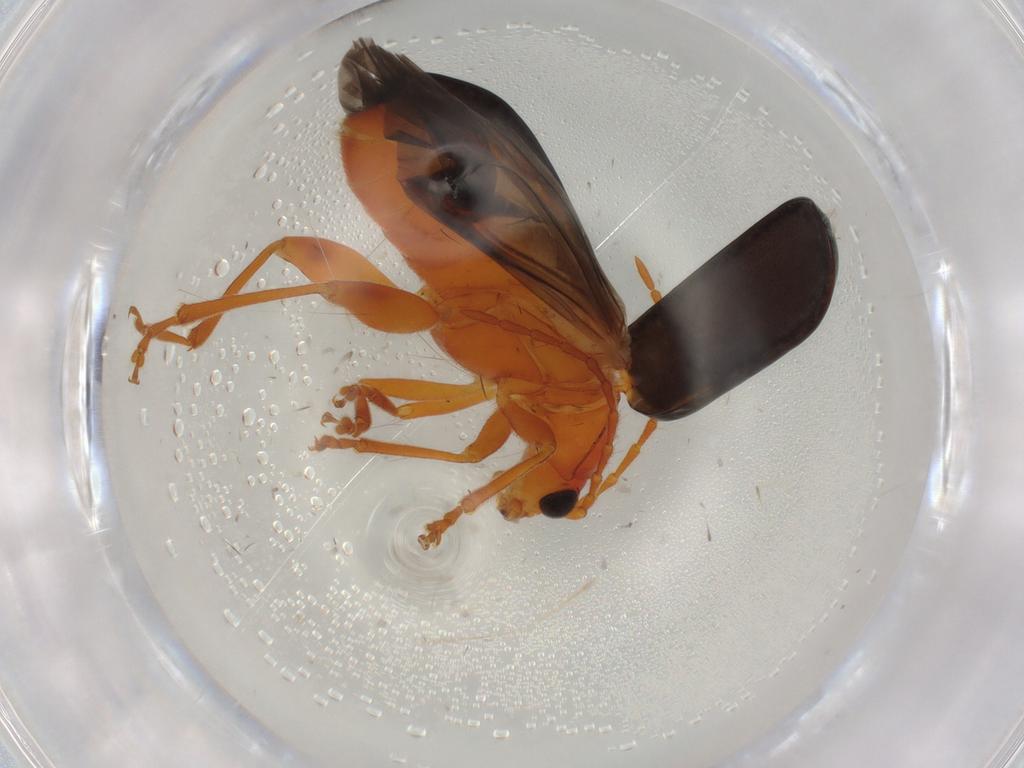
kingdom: Animalia
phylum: Arthropoda
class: Insecta
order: Coleoptera
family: Chrysomelidae
